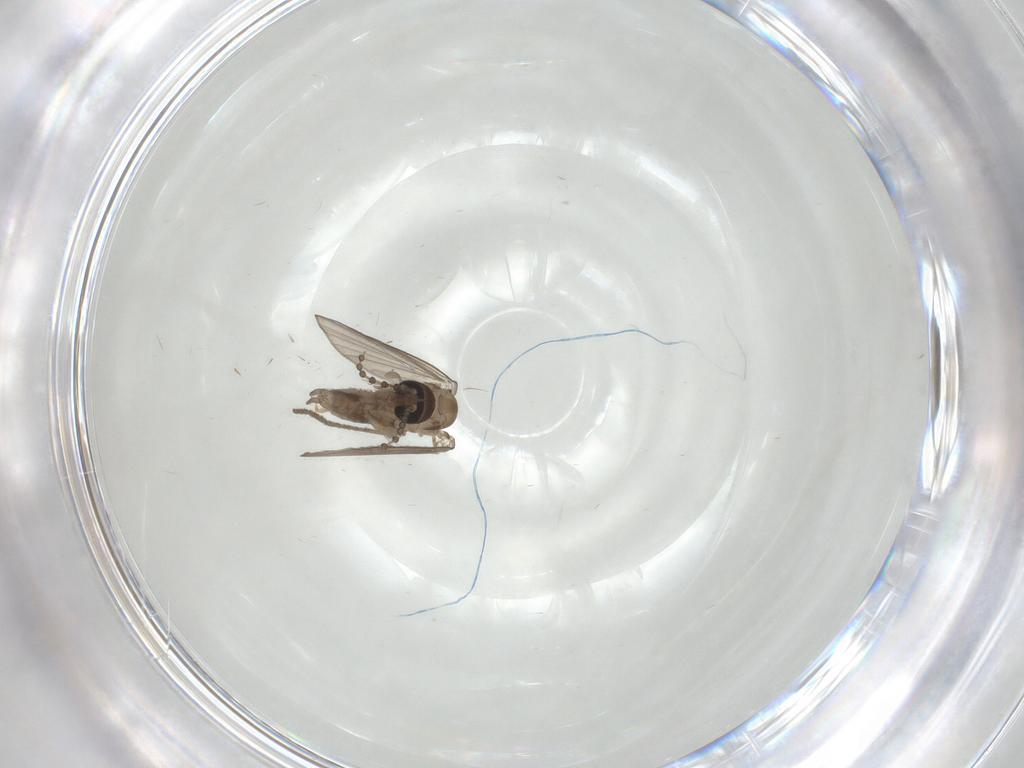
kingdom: Animalia
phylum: Arthropoda
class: Insecta
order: Diptera
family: Psychodidae
